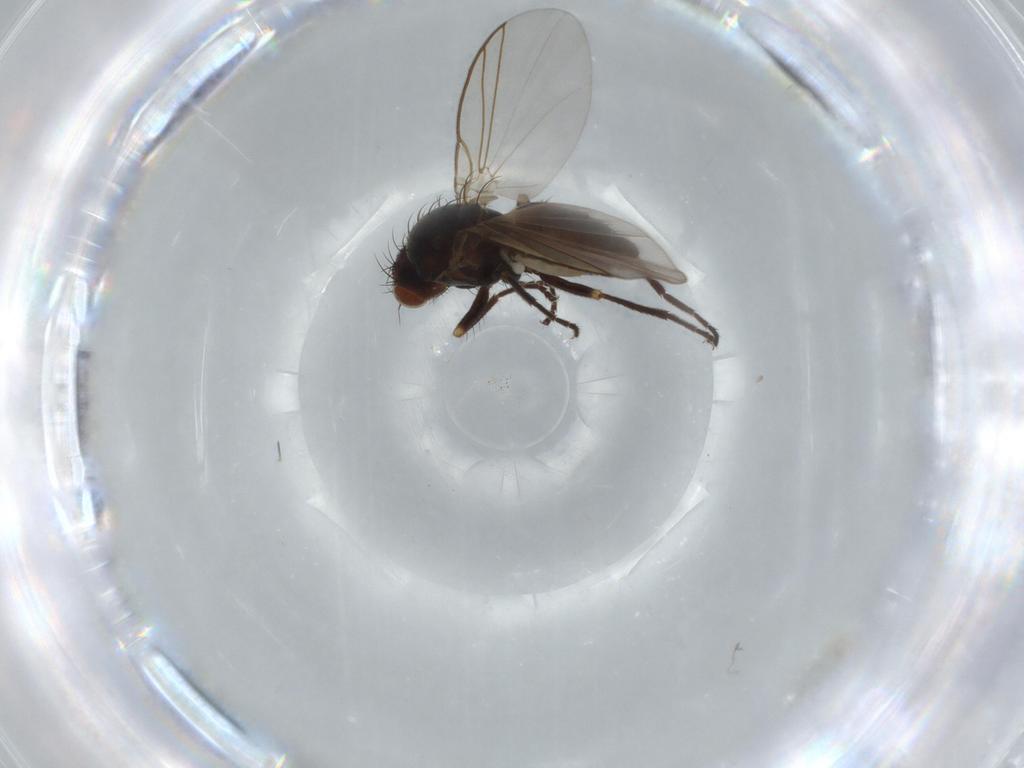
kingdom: Animalia
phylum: Arthropoda
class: Insecta
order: Diptera
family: Agromyzidae
